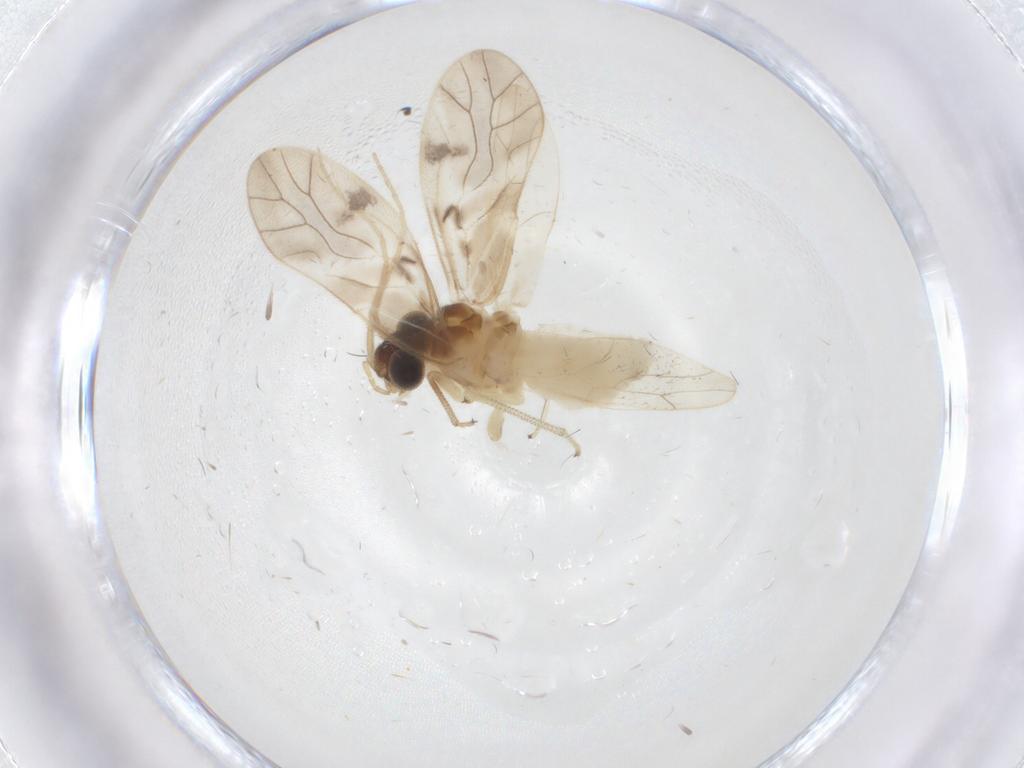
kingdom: Animalia
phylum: Arthropoda
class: Insecta
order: Psocodea
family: Caeciliusidae
